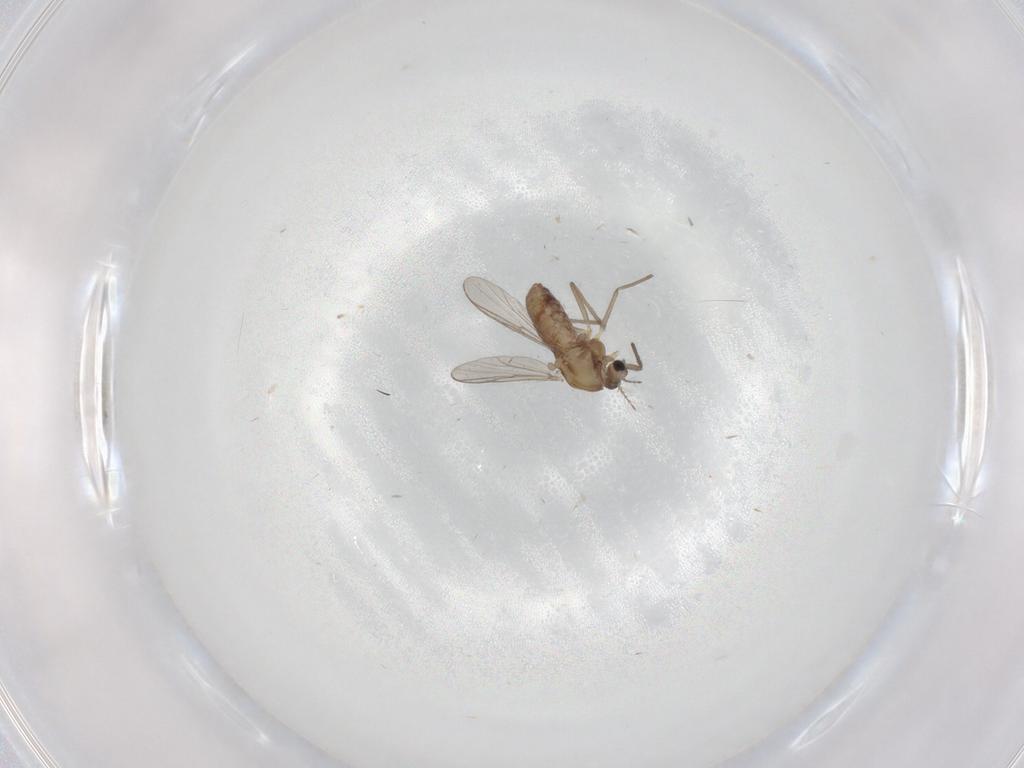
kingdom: Animalia
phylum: Arthropoda
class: Insecta
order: Diptera
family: Chironomidae
